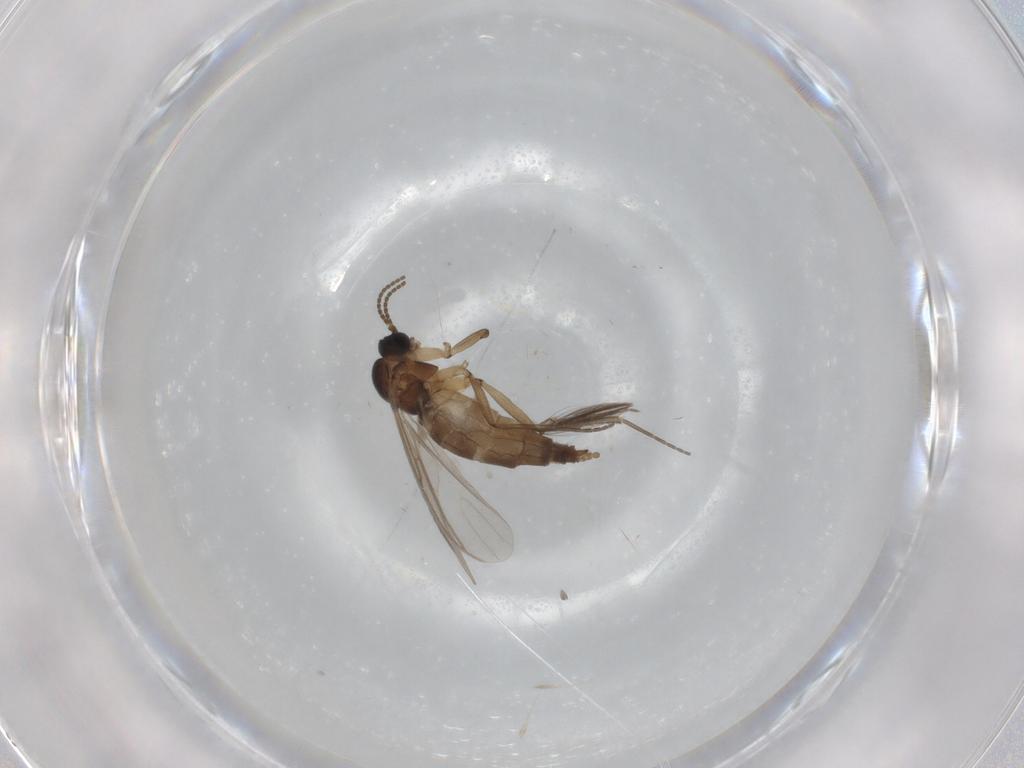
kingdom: Animalia
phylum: Arthropoda
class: Insecta
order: Diptera
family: Sciaridae
